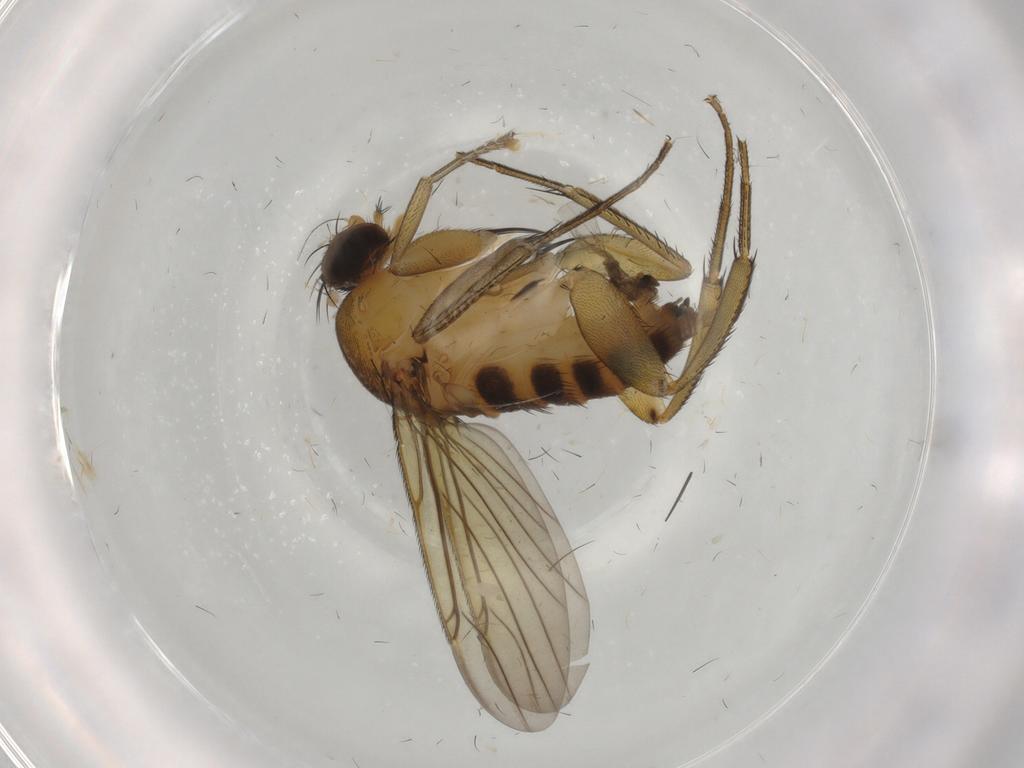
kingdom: Animalia
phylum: Arthropoda
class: Insecta
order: Diptera
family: Phoridae
